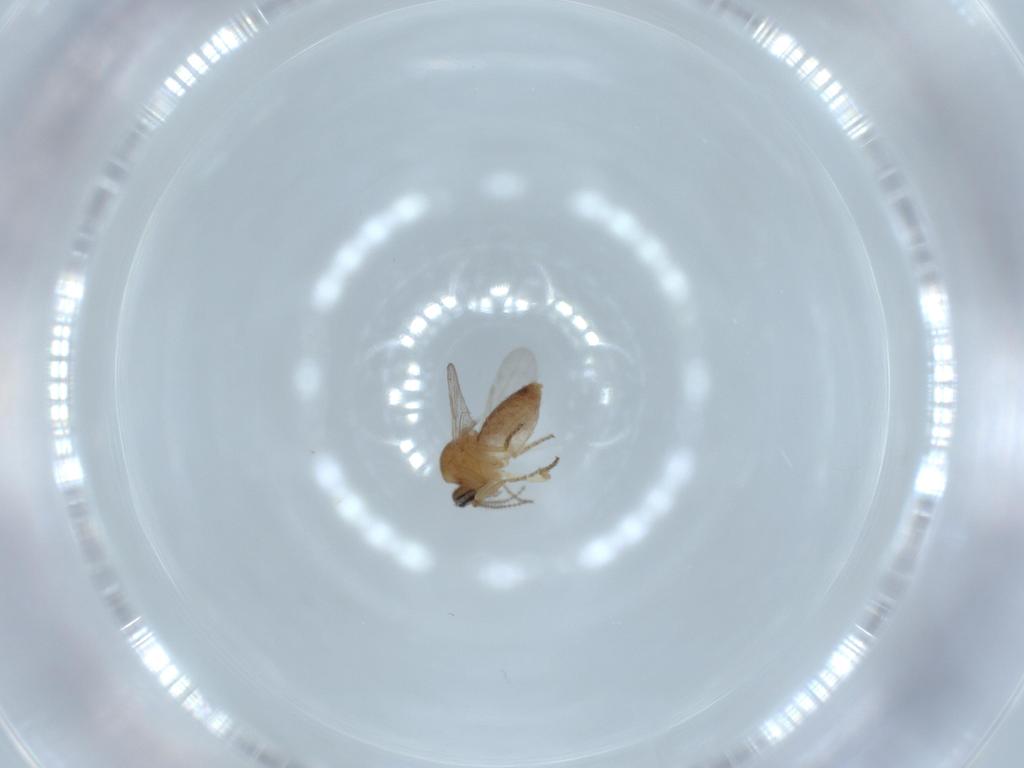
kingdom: Animalia
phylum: Arthropoda
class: Insecta
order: Diptera
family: Ceratopogonidae
